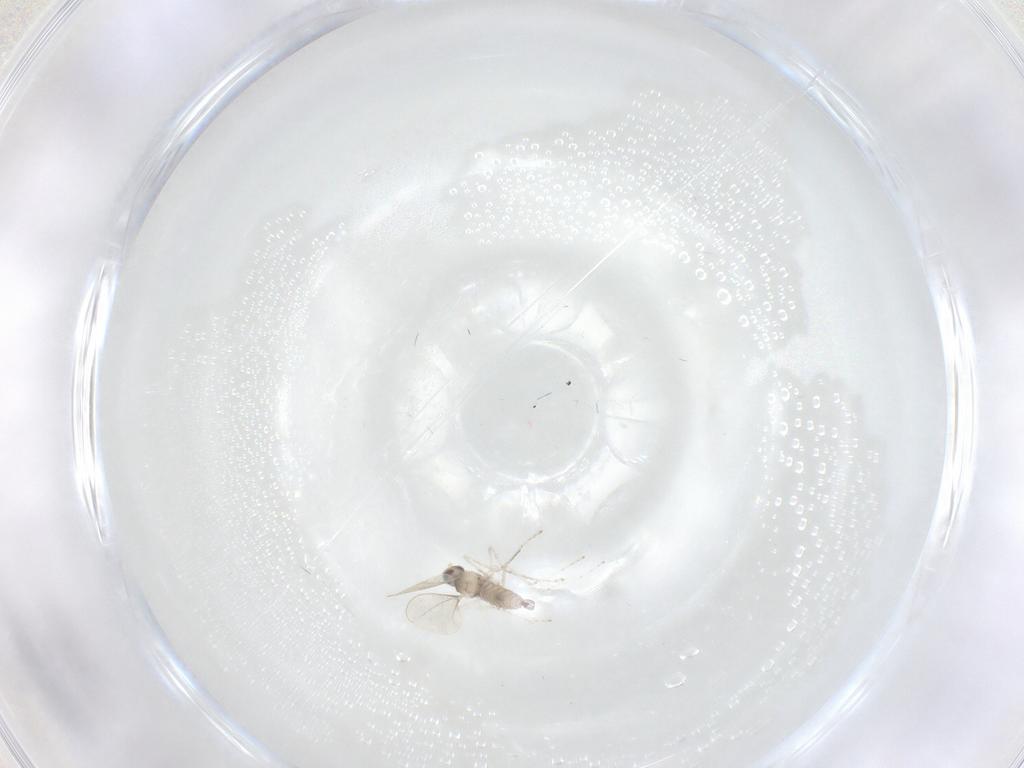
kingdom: Animalia
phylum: Arthropoda
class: Insecta
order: Diptera
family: Cecidomyiidae
